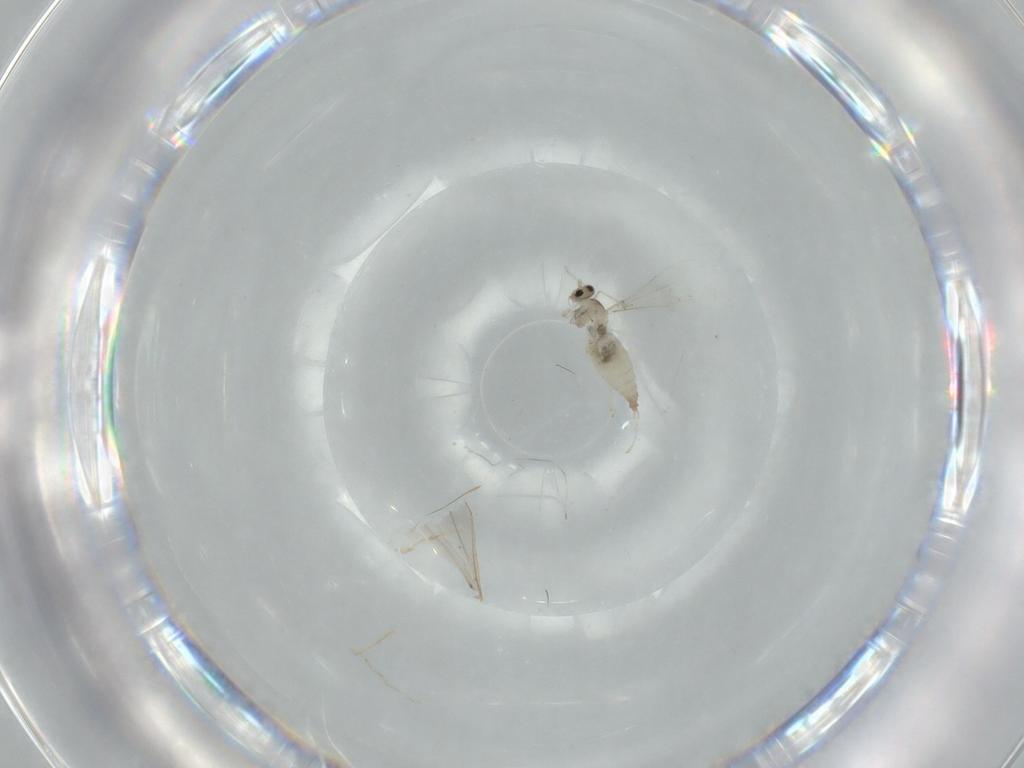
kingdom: Animalia
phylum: Arthropoda
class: Insecta
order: Diptera
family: Cecidomyiidae
